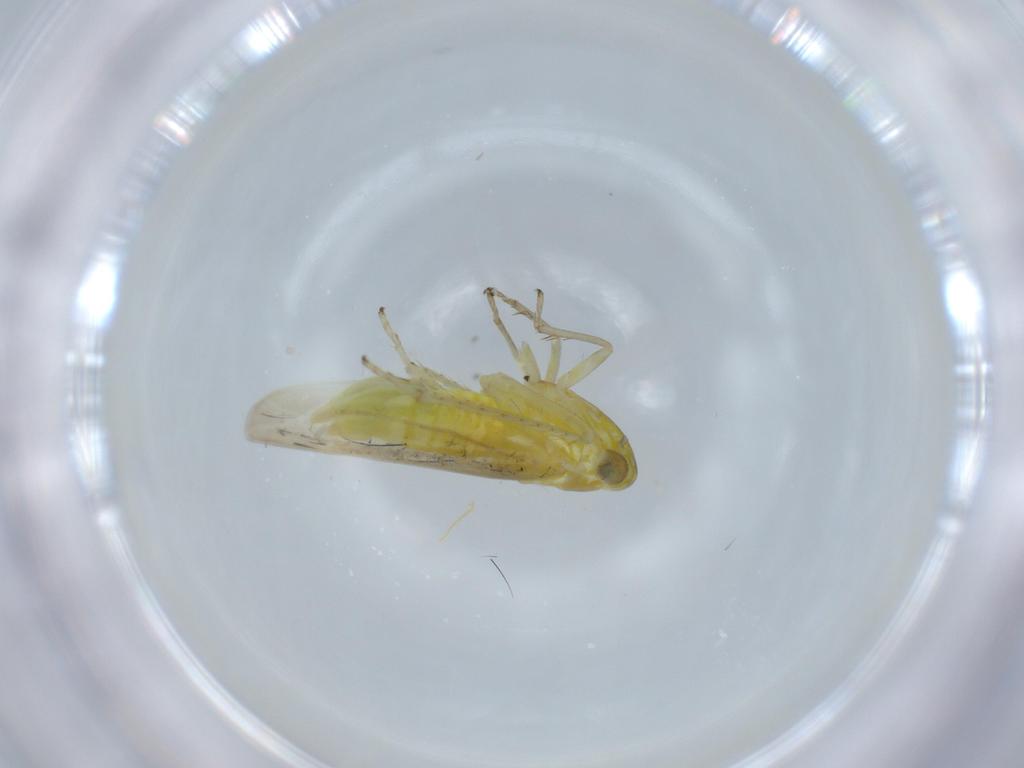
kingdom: Animalia
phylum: Arthropoda
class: Insecta
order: Hemiptera
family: Cicadellidae
